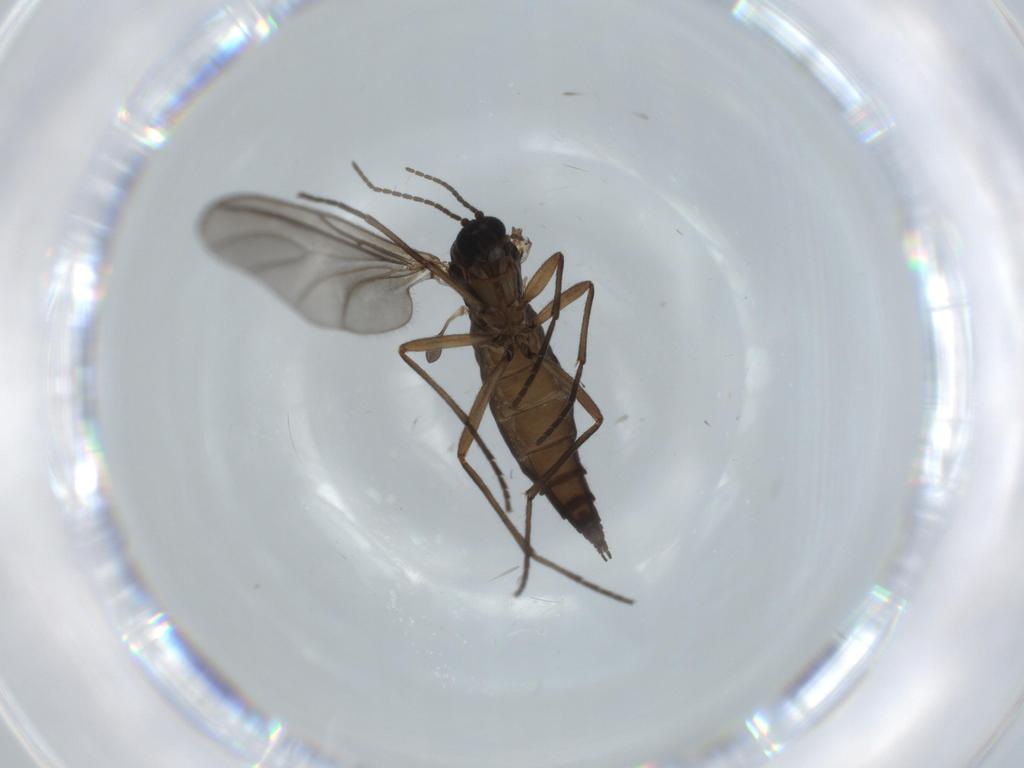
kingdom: Animalia
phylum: Arthropoda
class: Insecta
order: Diptera
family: Sciaridae
